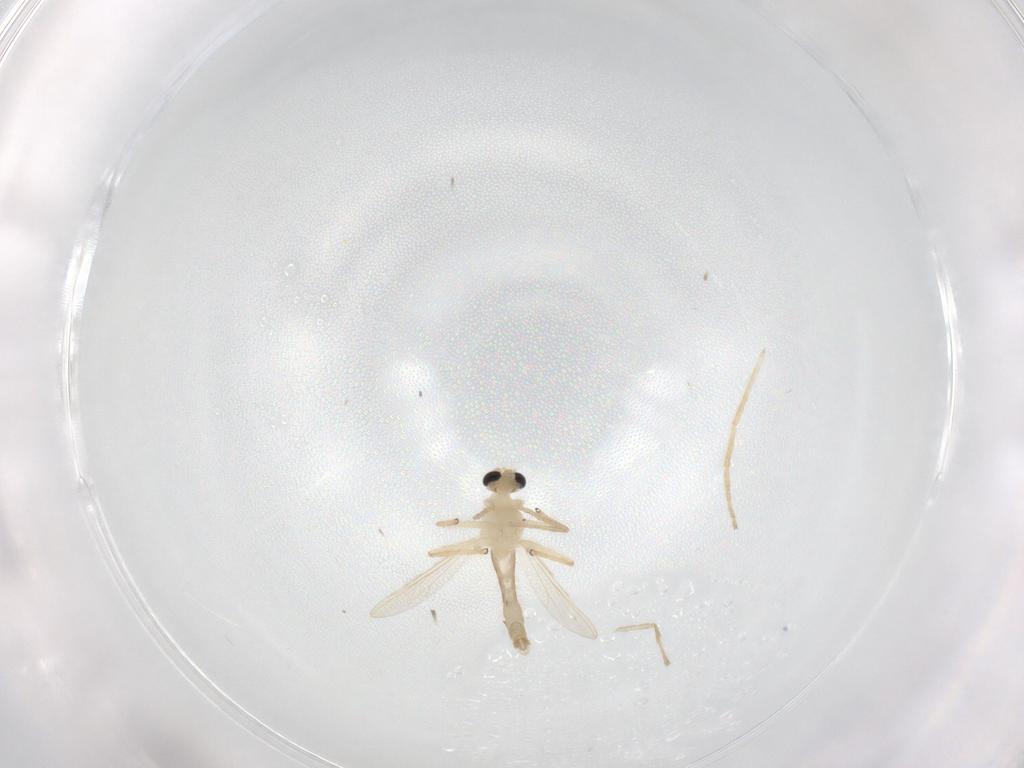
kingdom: Animalia
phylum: Arthropoda
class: Insecta
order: Diptera
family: Chironomidae
